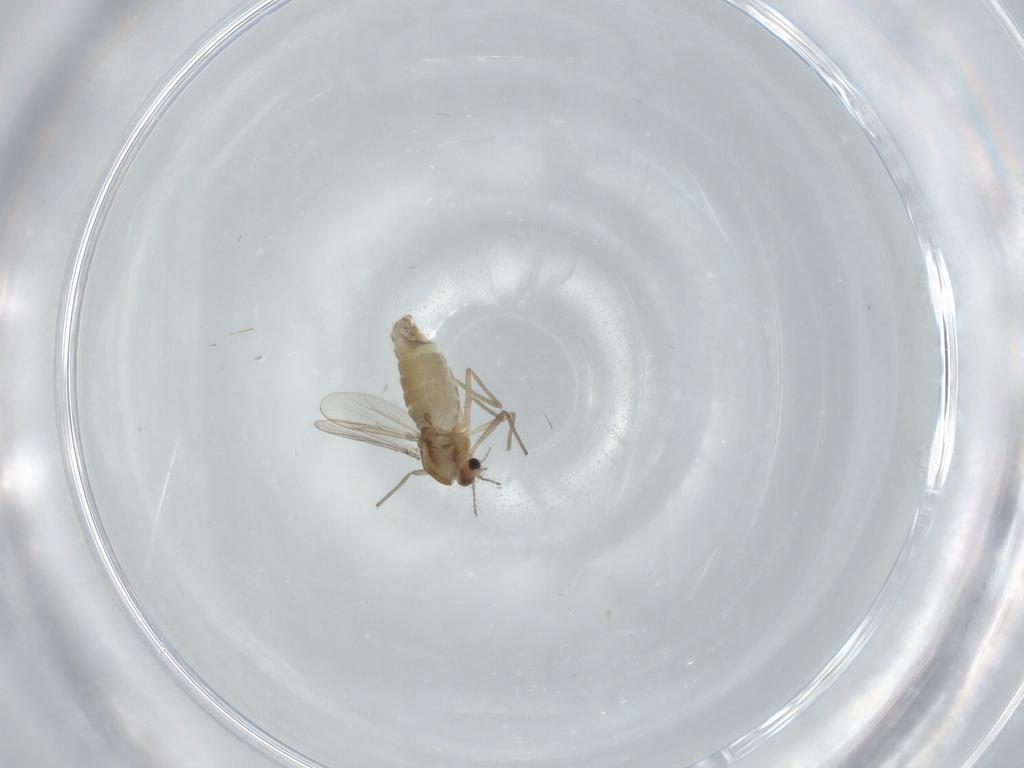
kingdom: Animalia
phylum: Arthropoda
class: Insecta
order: Diptera
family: Chironomidae
